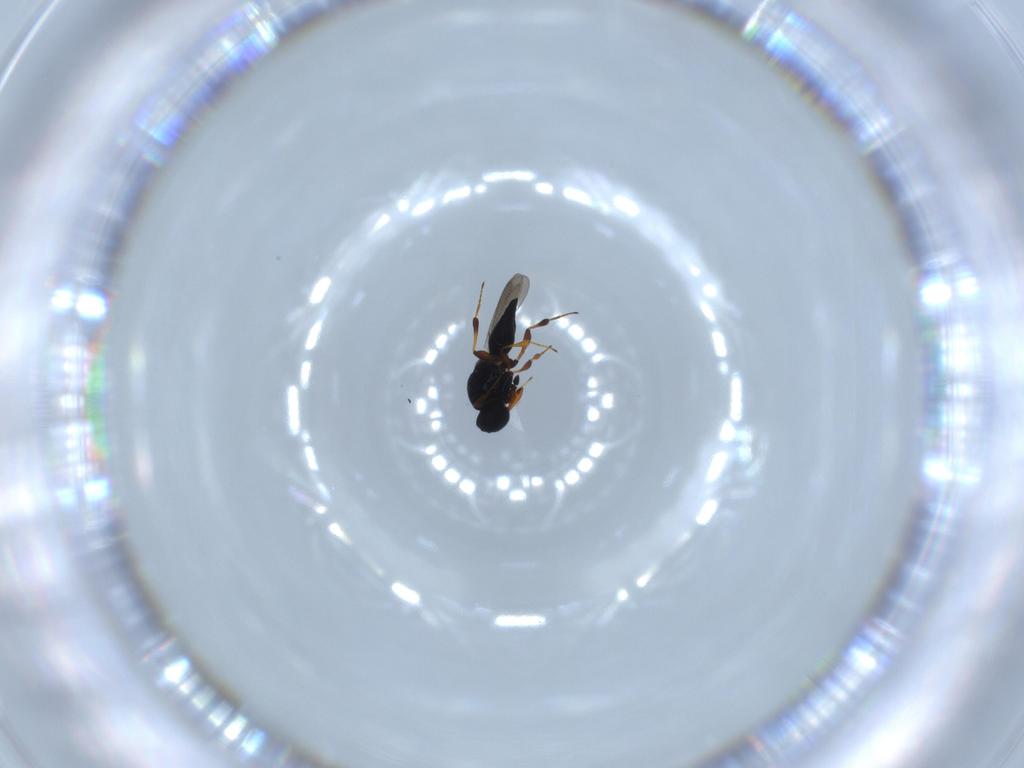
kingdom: Animalia
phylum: Arthropoda
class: Insecta
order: Hymenoptera
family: Platygastridae
